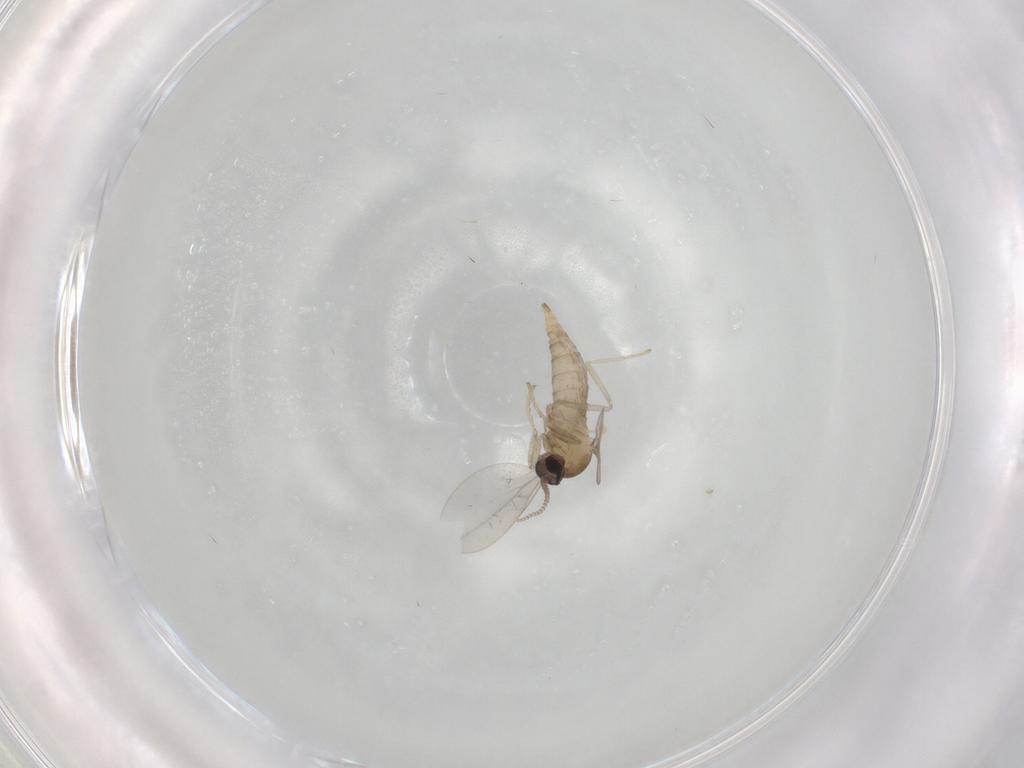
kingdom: Animalia
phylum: Arthropoda
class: Insecta
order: Diptera
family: Cecidomyiidae
